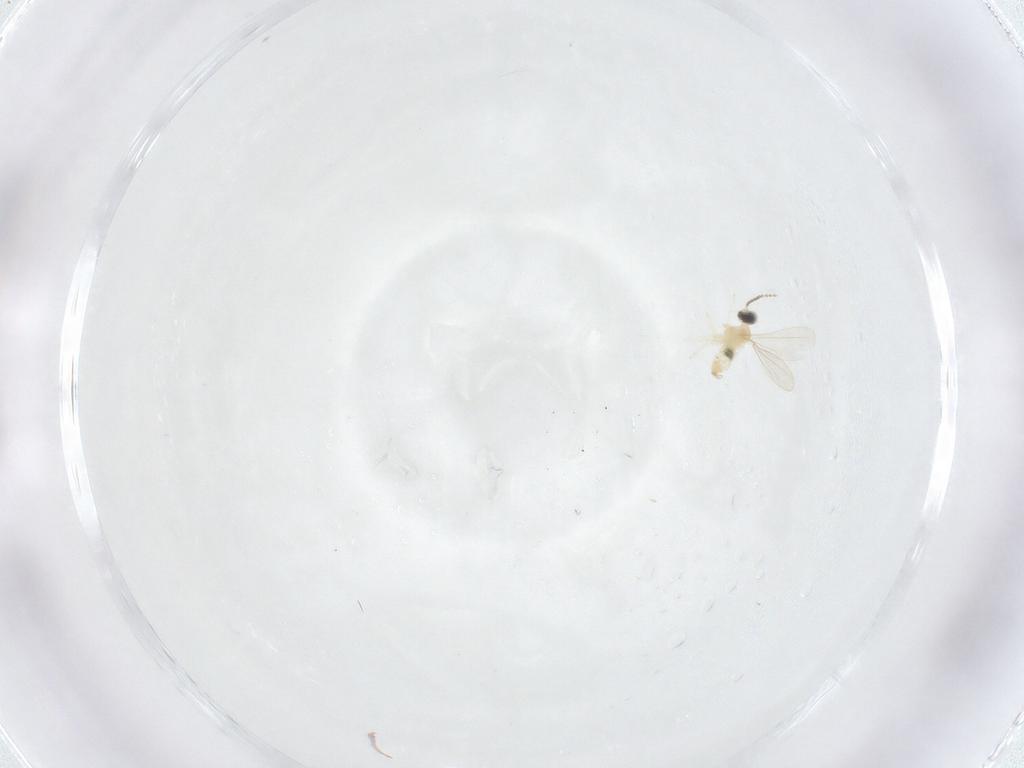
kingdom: Animalia
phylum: Arthropoda
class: Insecta
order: Diptera
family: Cecidomyiidae
